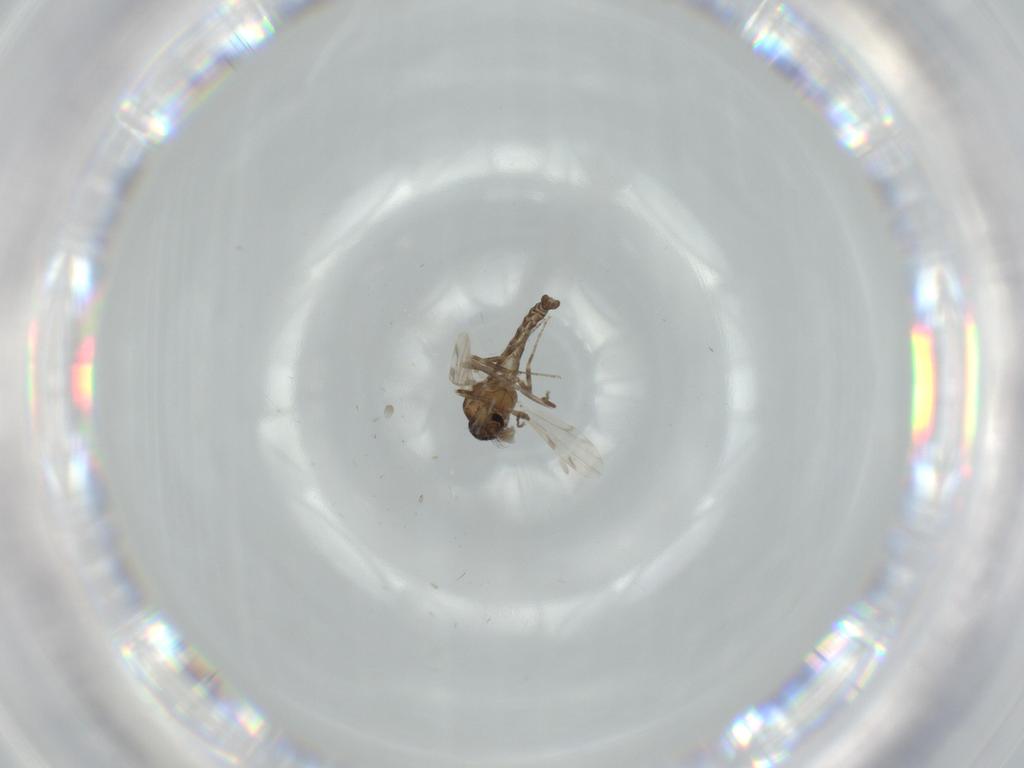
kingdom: Animalia
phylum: Arthropoda
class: Insecta
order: Diptera
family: Ceratopogonidae
